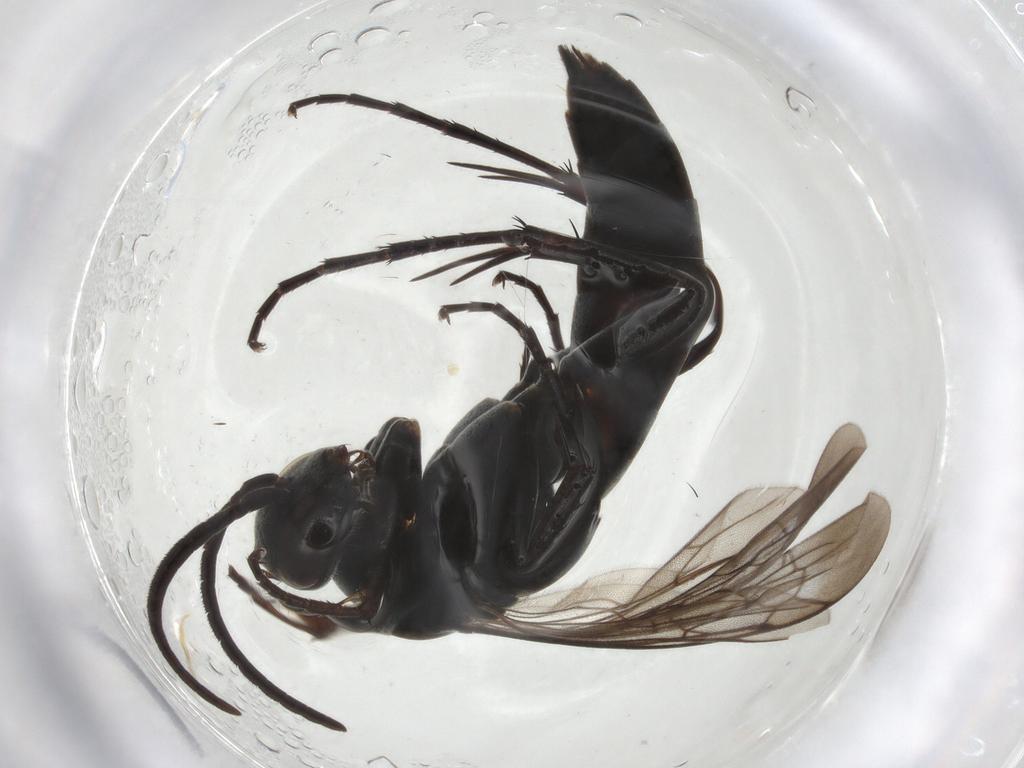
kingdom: Animalia
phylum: Arthropoda
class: Insecta
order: Hymenoptera
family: Pompilidae
